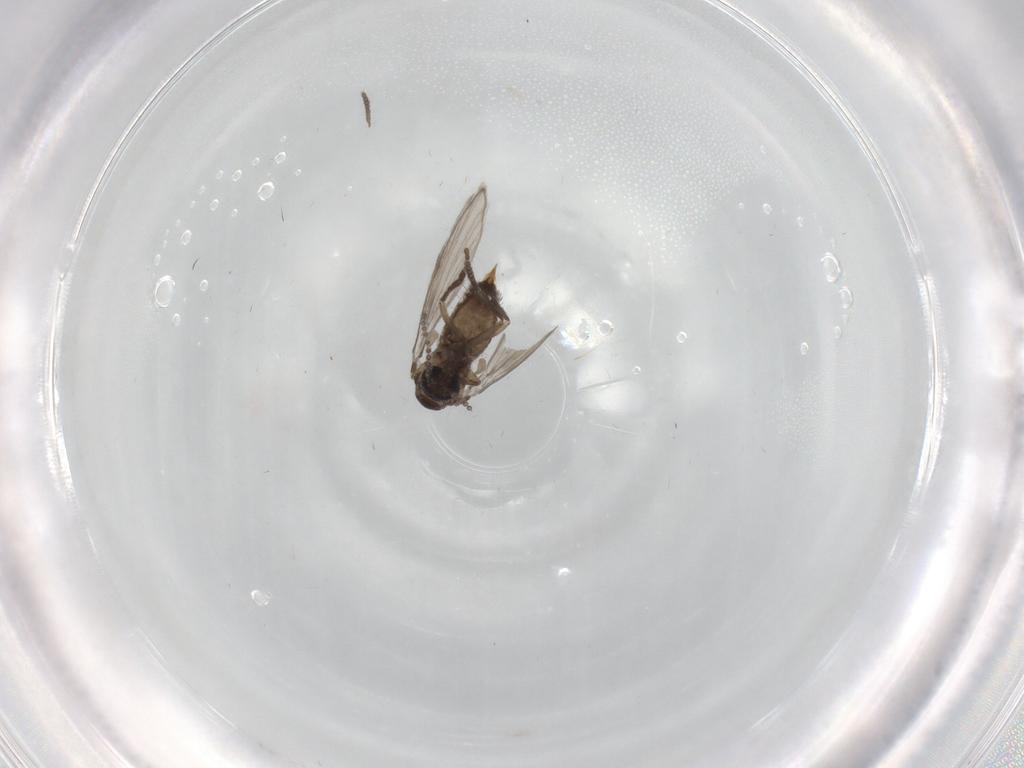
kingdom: Animalia
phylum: Arthropoda
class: Insecta
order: Diptera
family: Psychodidae
